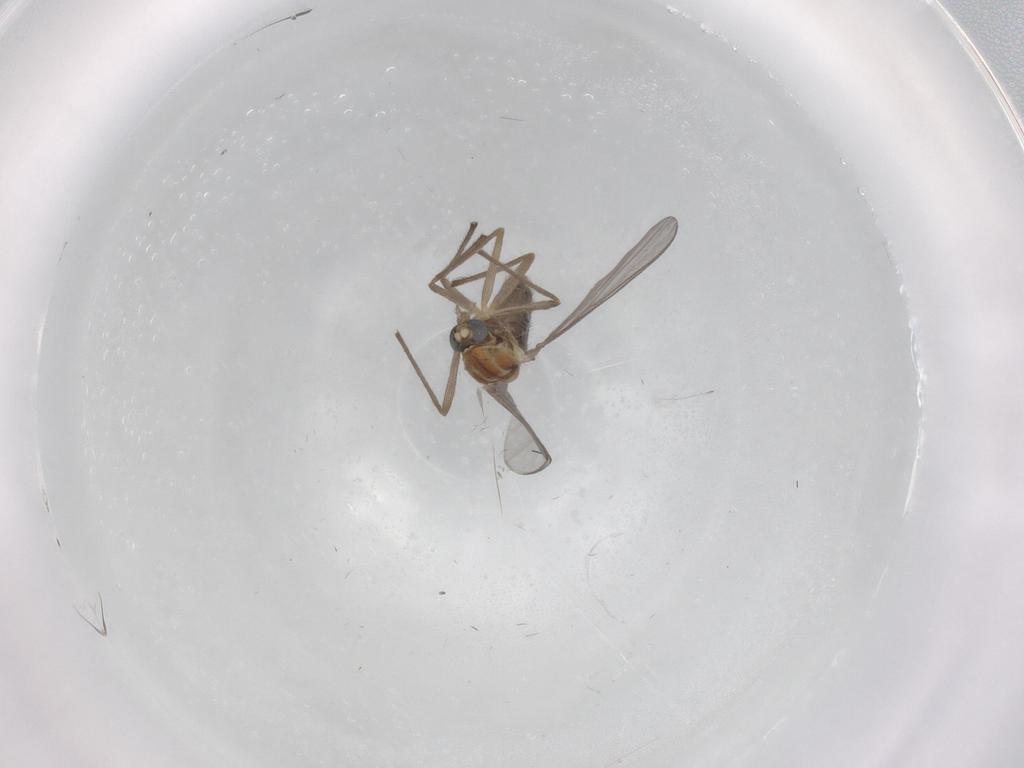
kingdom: Animalia
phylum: Arthropoda
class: Insecta
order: Diptera
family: Chironomidae
